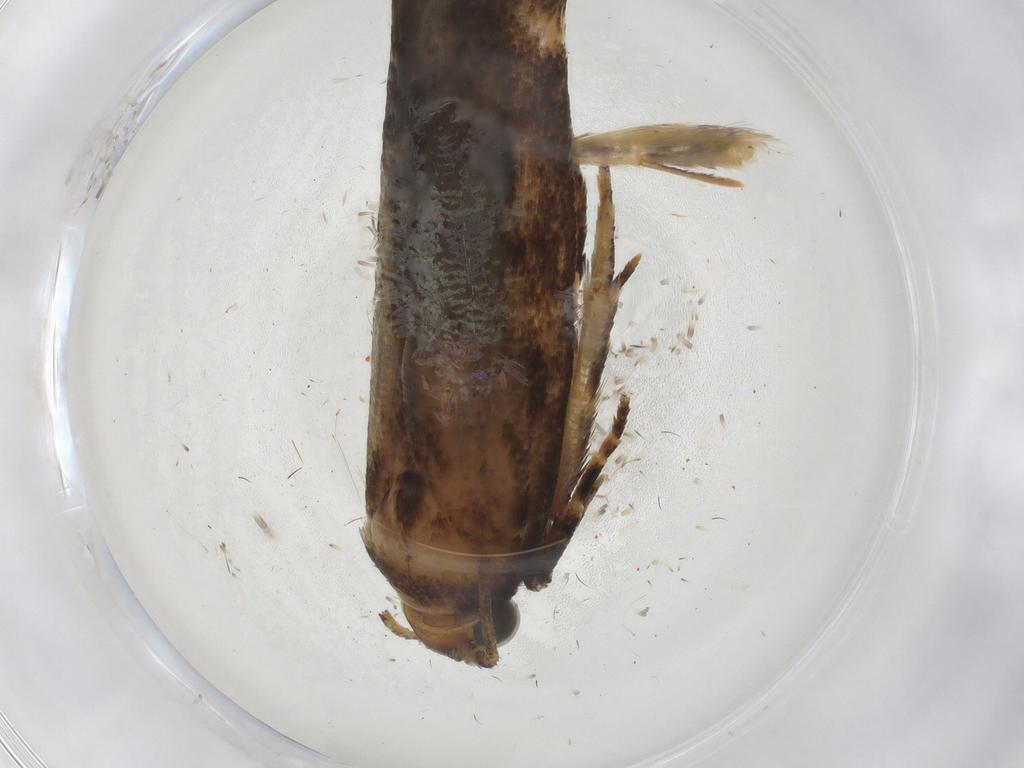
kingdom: Animalia
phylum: Arthropoda
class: Insecta
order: Lepidoptera
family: Gelechiidae
